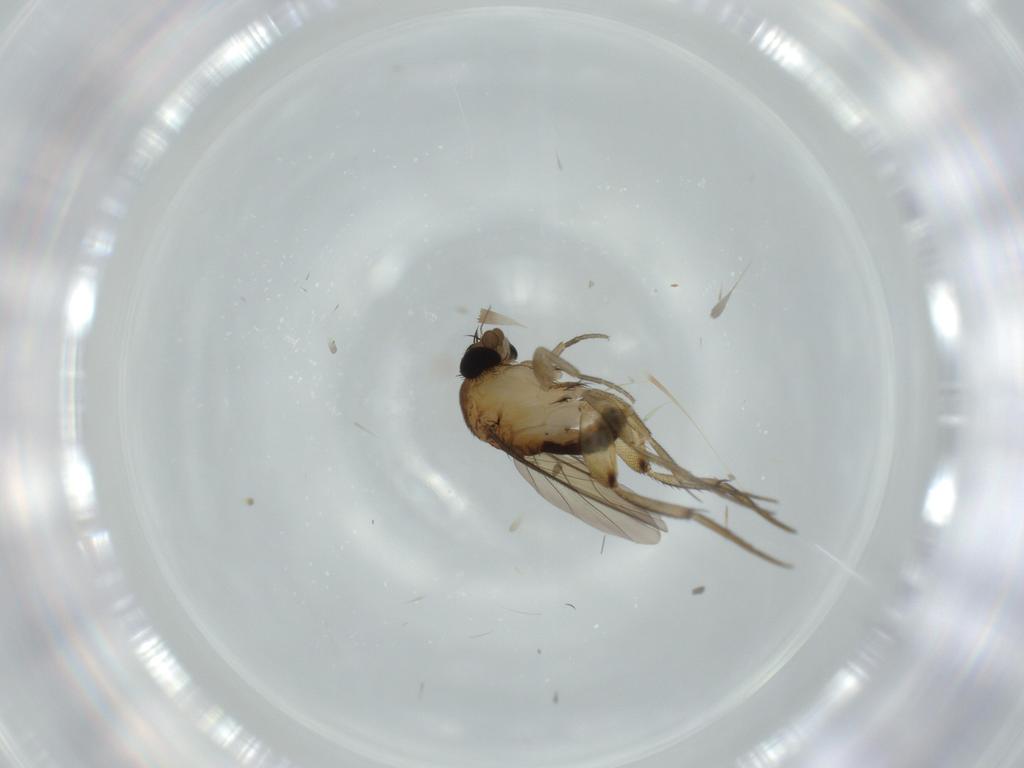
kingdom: Animalia
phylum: Arthropoda
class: Insecta
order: Diptera
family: Phoridae
